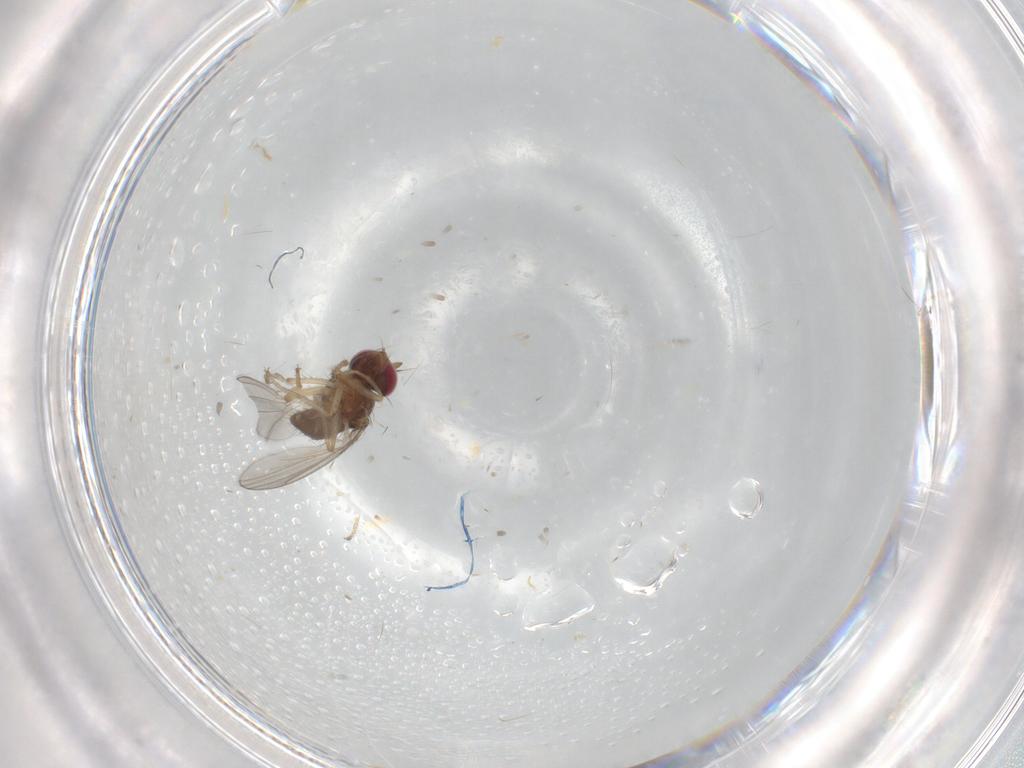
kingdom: Animalia
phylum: Arthropoda
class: Insecta
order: Diptera
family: Ephydridae
